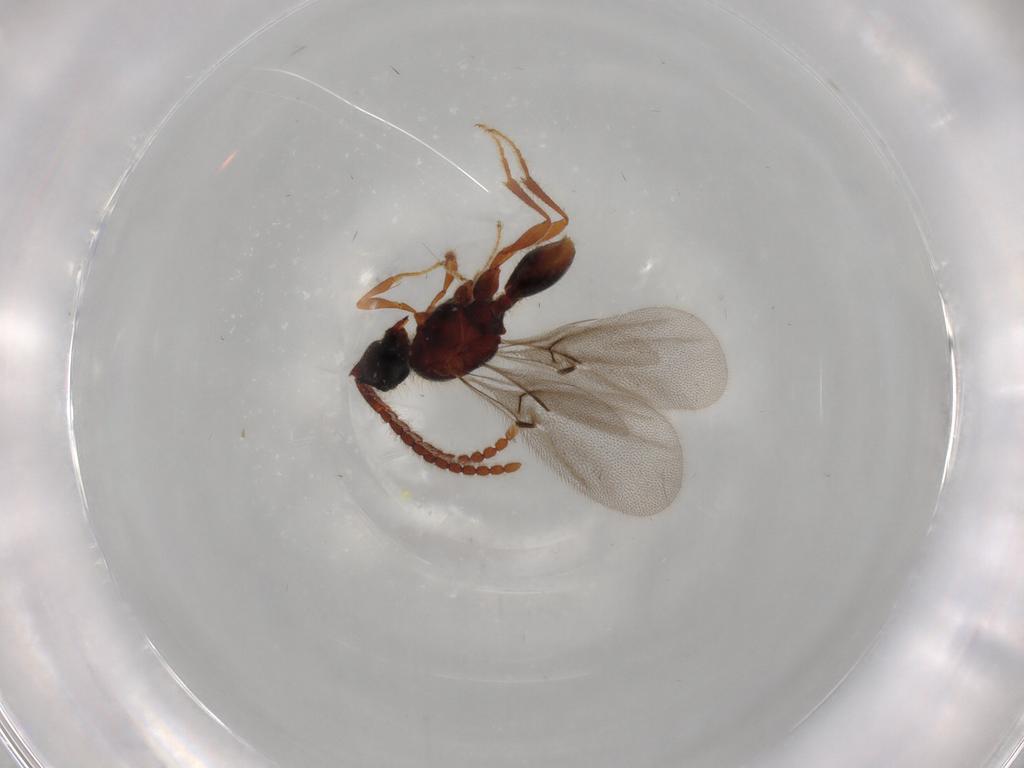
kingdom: Animalia
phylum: Arthropoda
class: Insecta
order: Hymenoptera
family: Diapriidae
